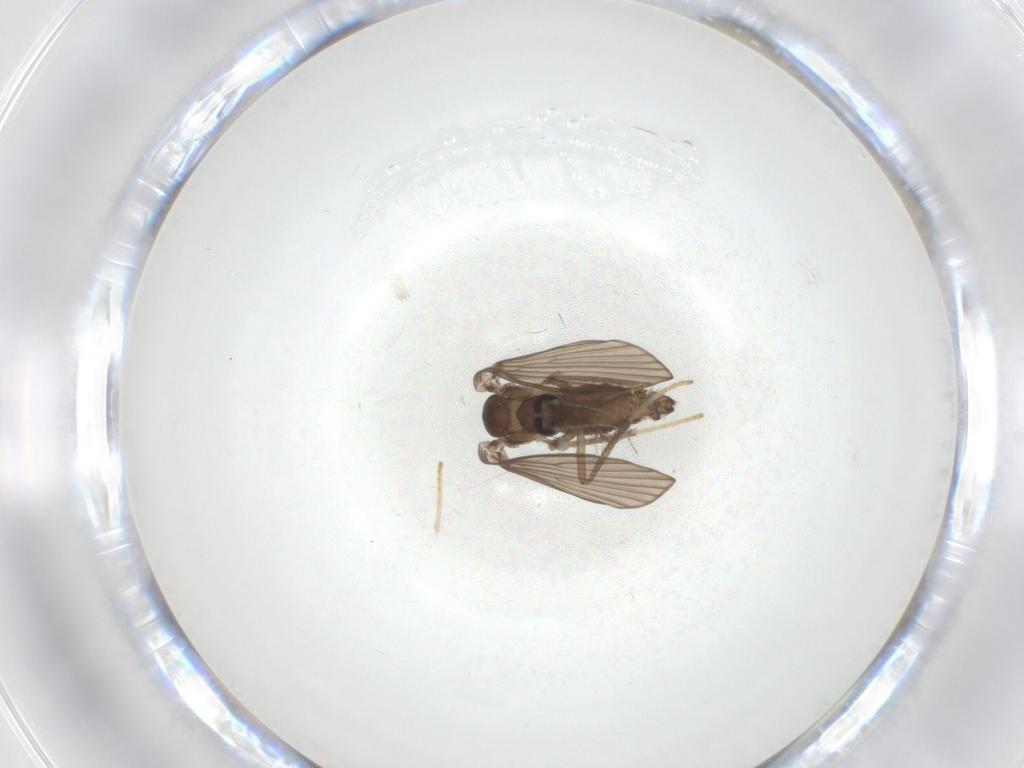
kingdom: Animalia
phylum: Arthropoda
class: Insecta
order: Diptera
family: Psychodidae
